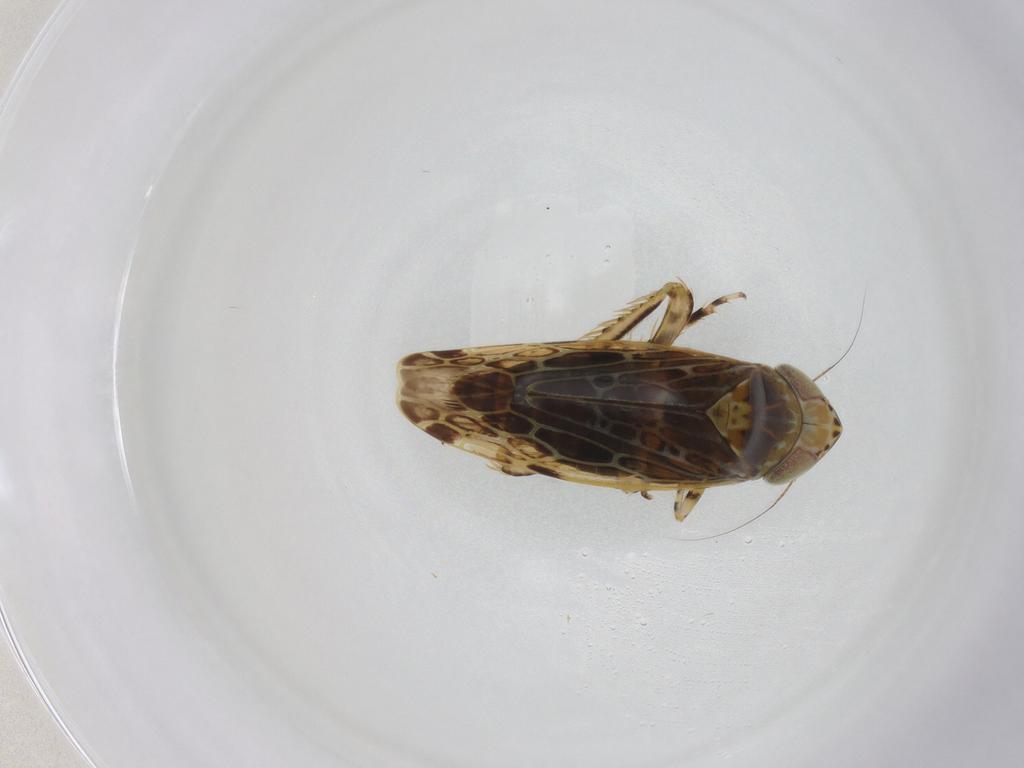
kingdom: Animalia
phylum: Arthropoda
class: Insecta
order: Hemiptera
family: Cicadellidae
